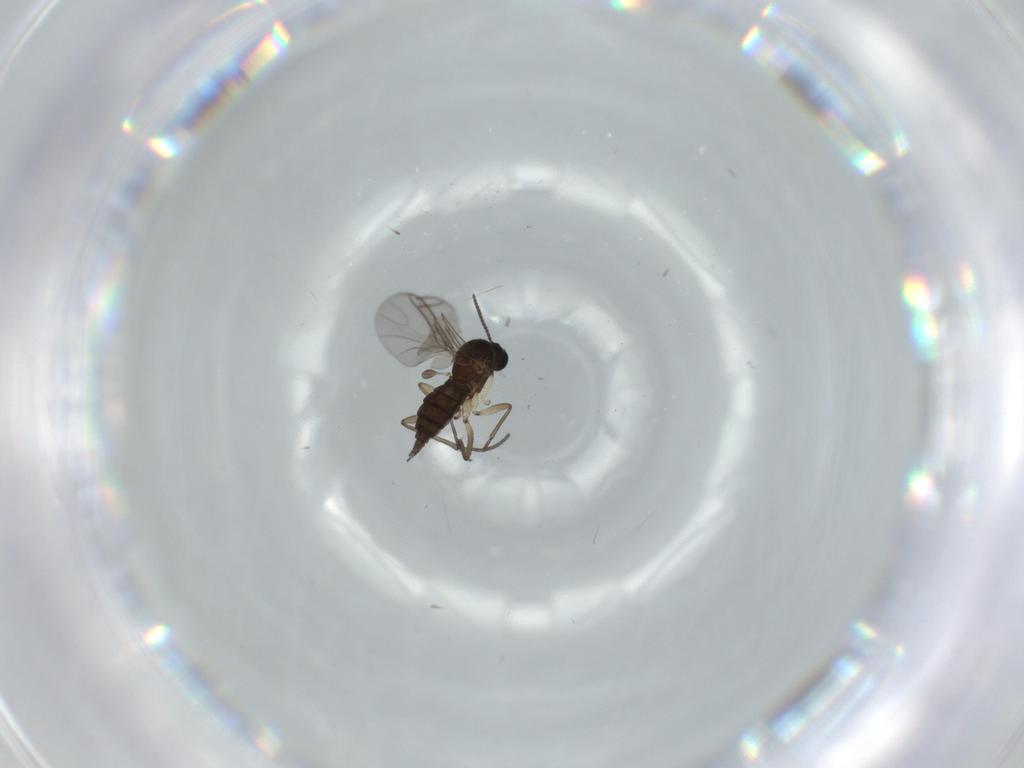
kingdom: Animalia
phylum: Arthropoda
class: Insecta
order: Diptera
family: Sciaridae
